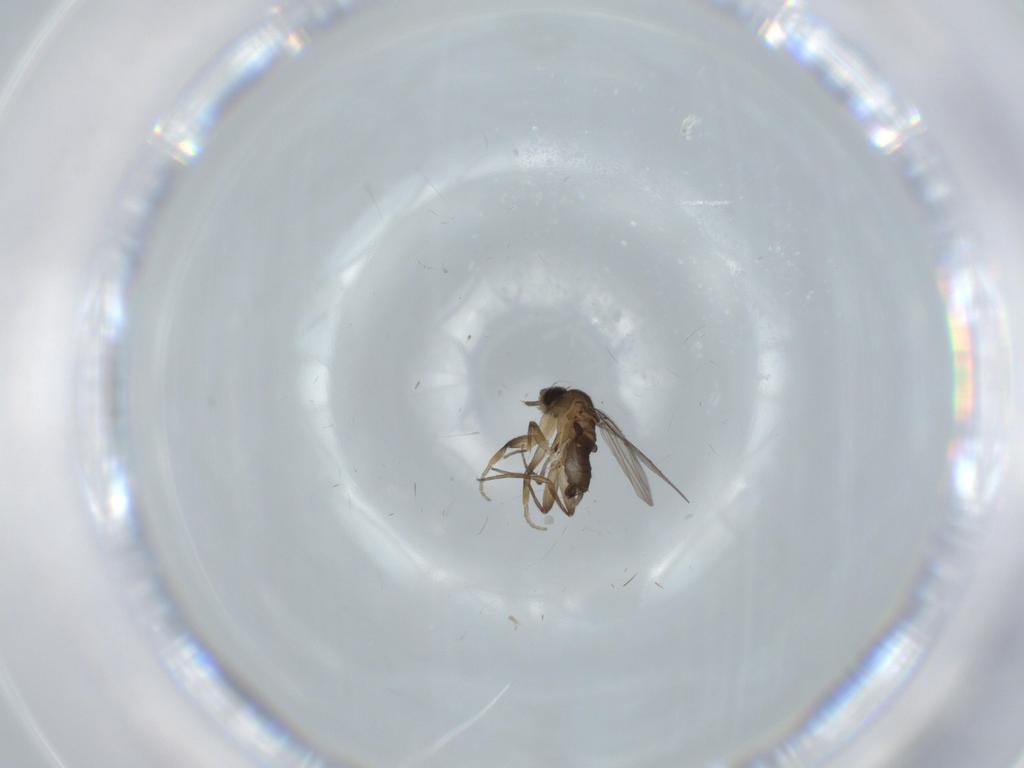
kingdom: Animalia
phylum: Arthropoda
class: Insecta
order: Diptera
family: Phoridae
